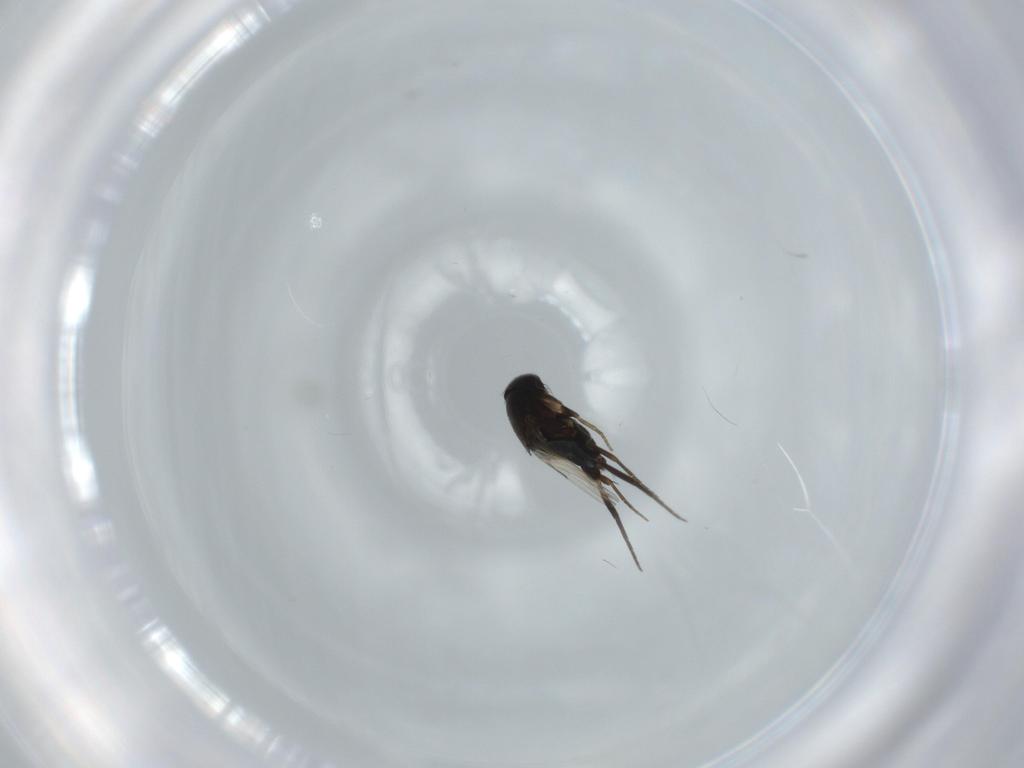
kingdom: Animalia
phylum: Arthropoda
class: Insecta
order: Diptera
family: Phoridae
